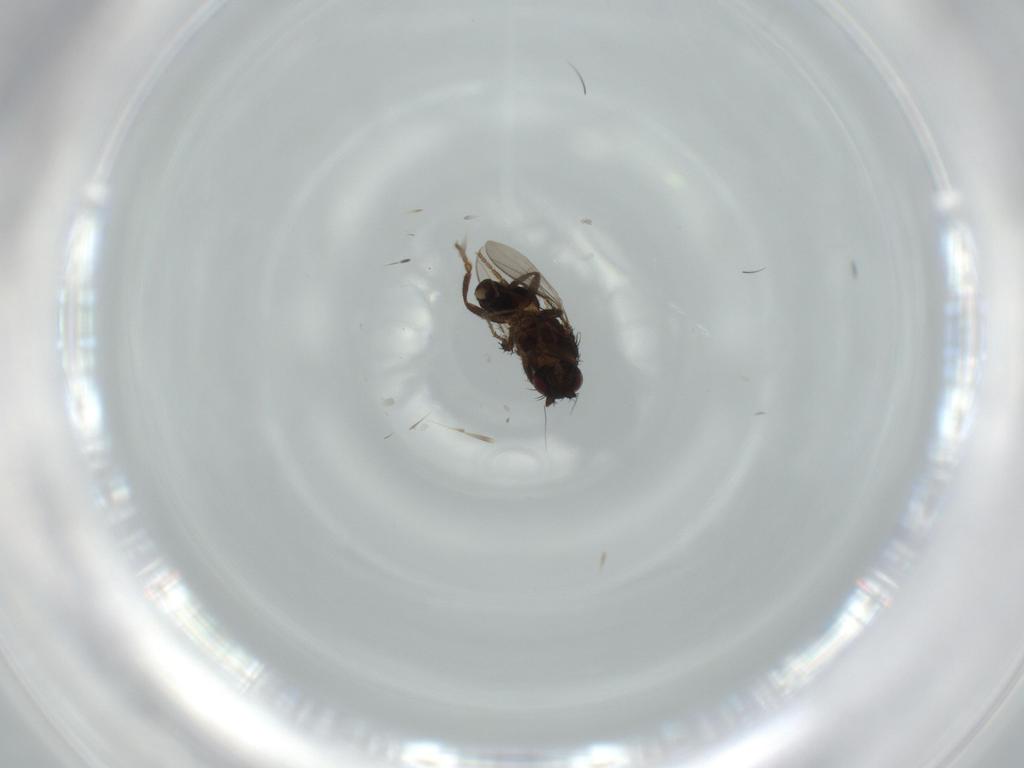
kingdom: Animalia
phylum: Arthropoda
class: Insecta
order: Diptera
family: Sphaeroceridae
